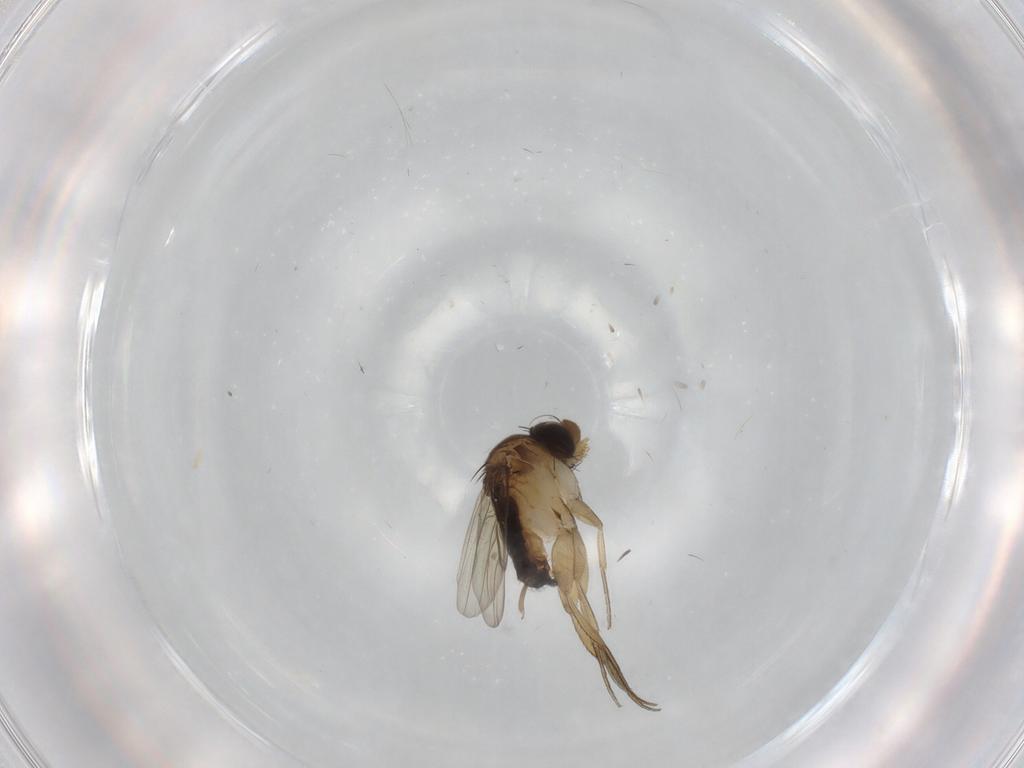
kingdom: Animalia
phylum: Arthropoda
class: Insecta
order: Diptera
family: Phoridae
